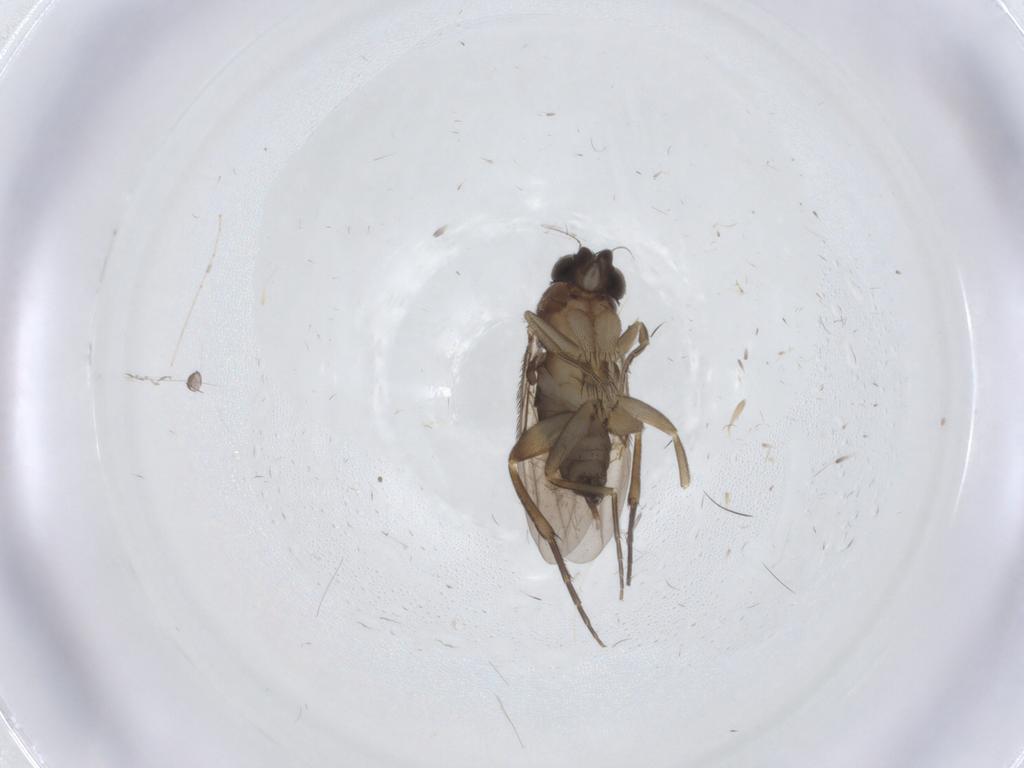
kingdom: Animalia
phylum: Arthropoda
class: Insecta
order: Diptera
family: Phoridae
